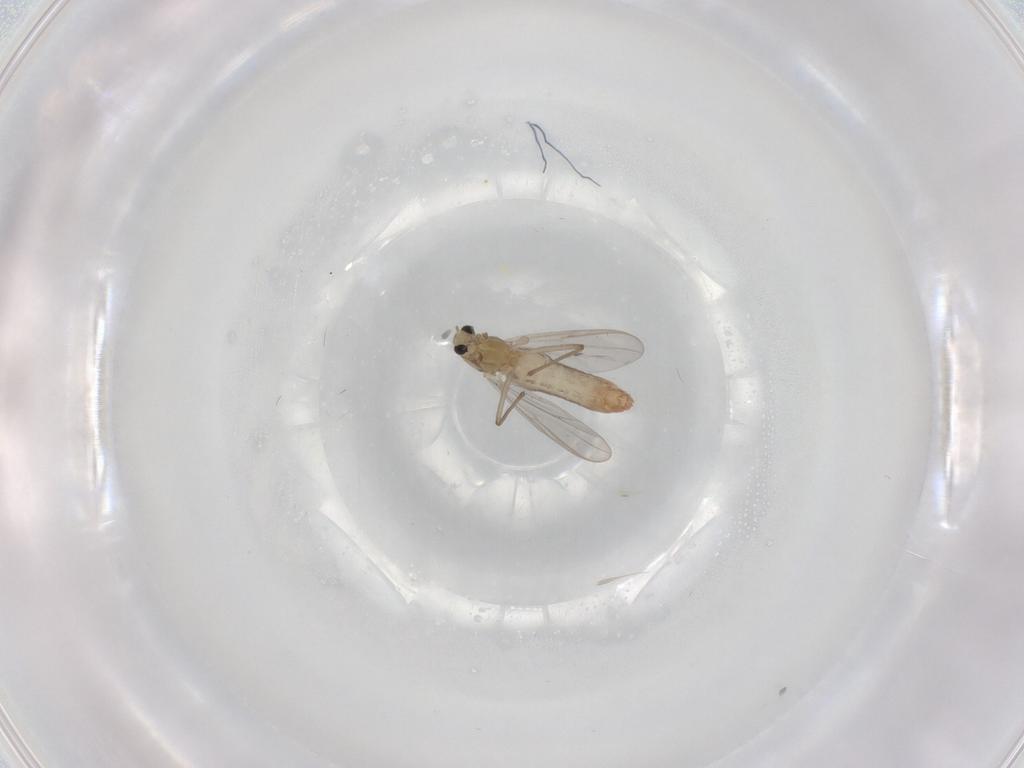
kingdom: Animalia
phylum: Arthropoda
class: Insecta
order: Diptera
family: Chironomidae
